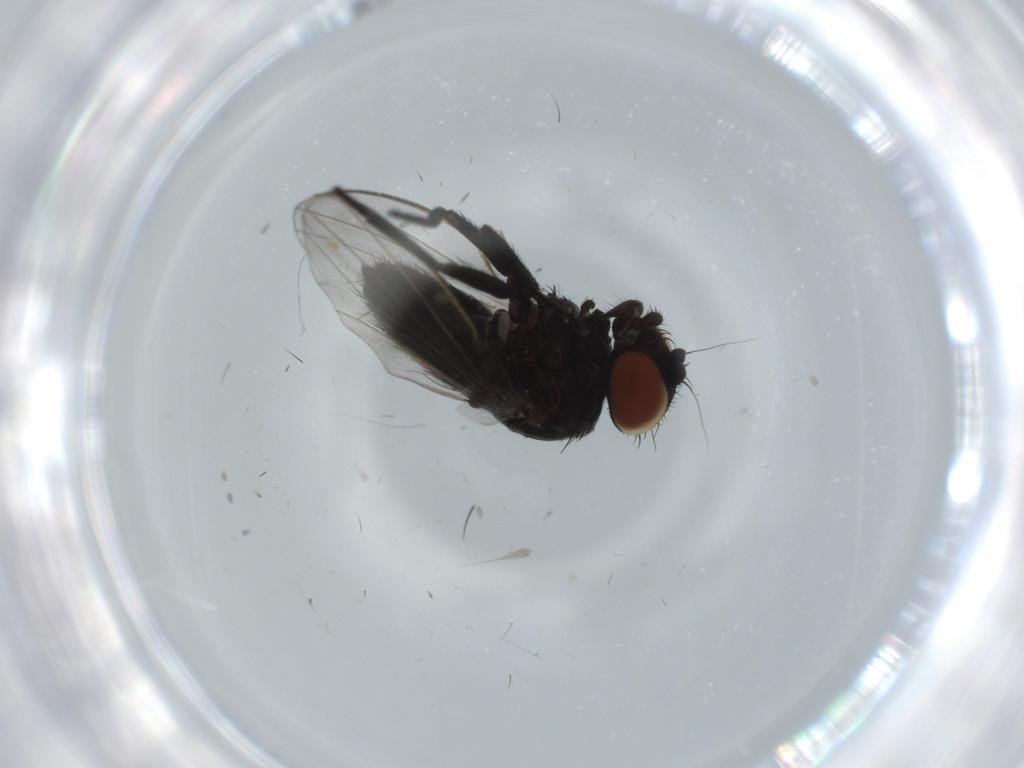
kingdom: Animalia
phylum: Arthropoda
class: Insecta
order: Diptera
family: Milichiidae
